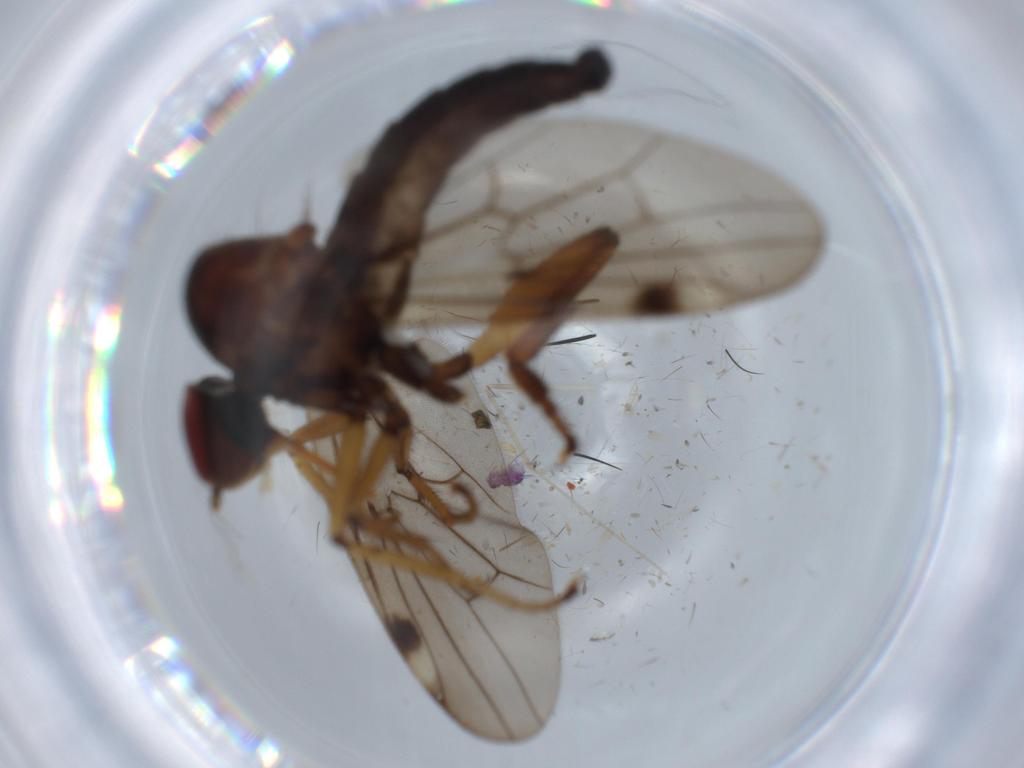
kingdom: Animalia
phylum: Arthropoda
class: Insecta
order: Diptera
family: Hybotidae
